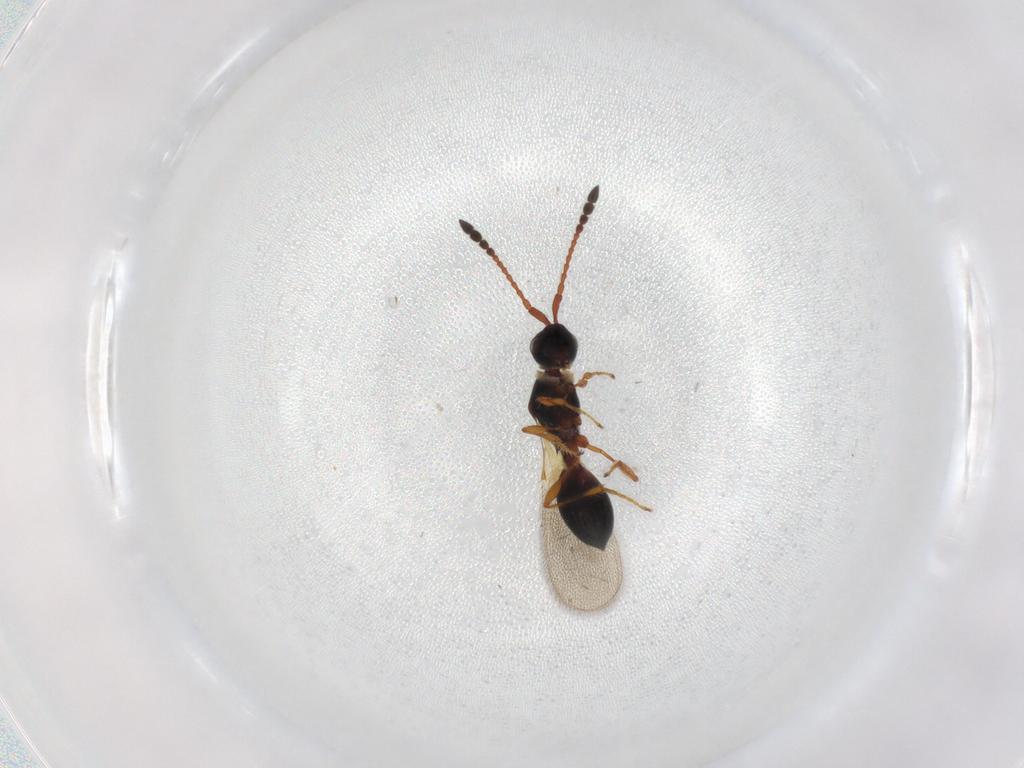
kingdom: Animalia
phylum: Arthropoda
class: Insecta
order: Hymenoptera
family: Diapriidae
